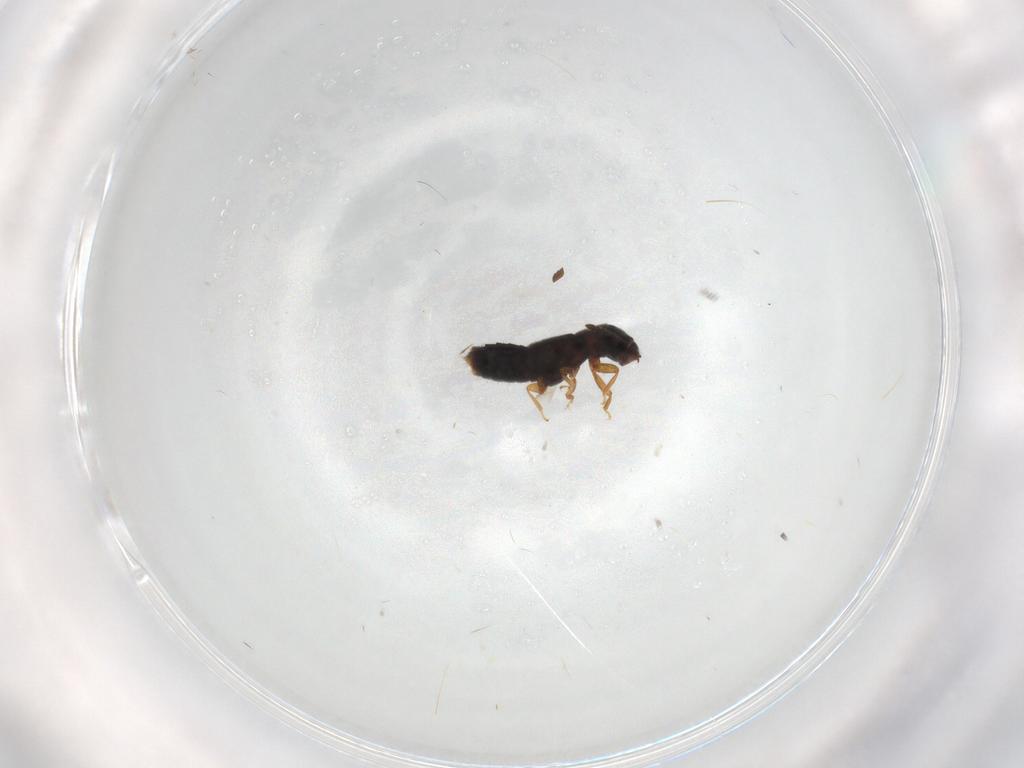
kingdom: Animalia
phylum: Arthropoda
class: Insecta
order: Coleoptera
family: Staphylinidae
